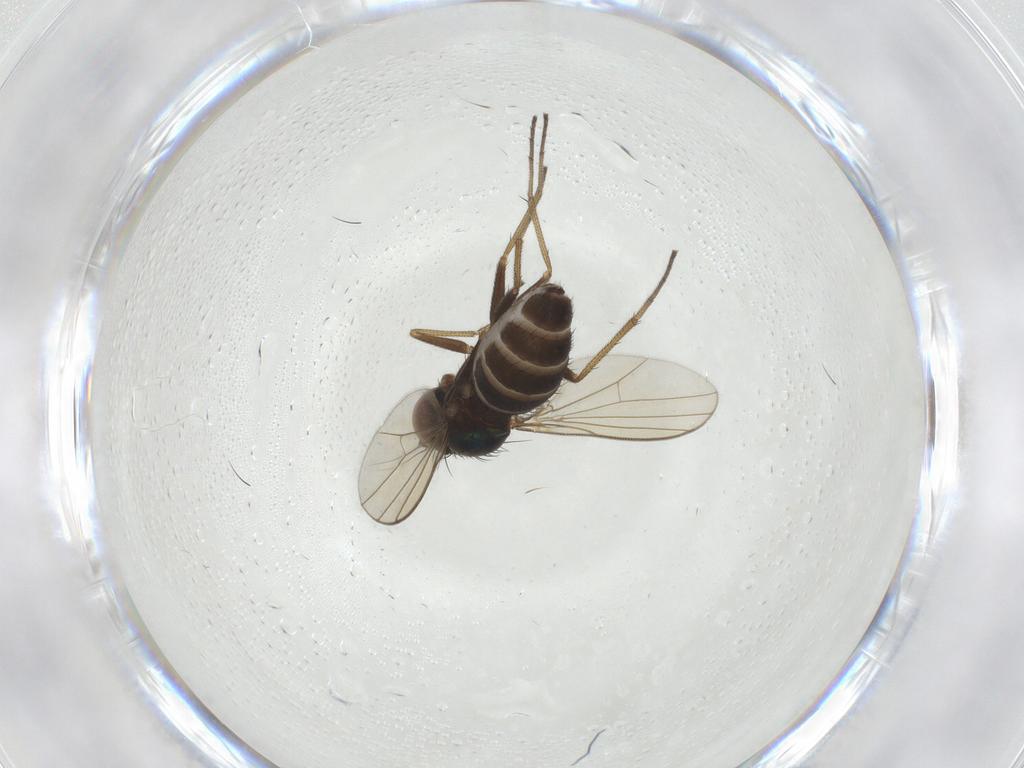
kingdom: Animalia
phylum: Arthropoda
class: Insecta
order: Diptera
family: Dolichopodidae
